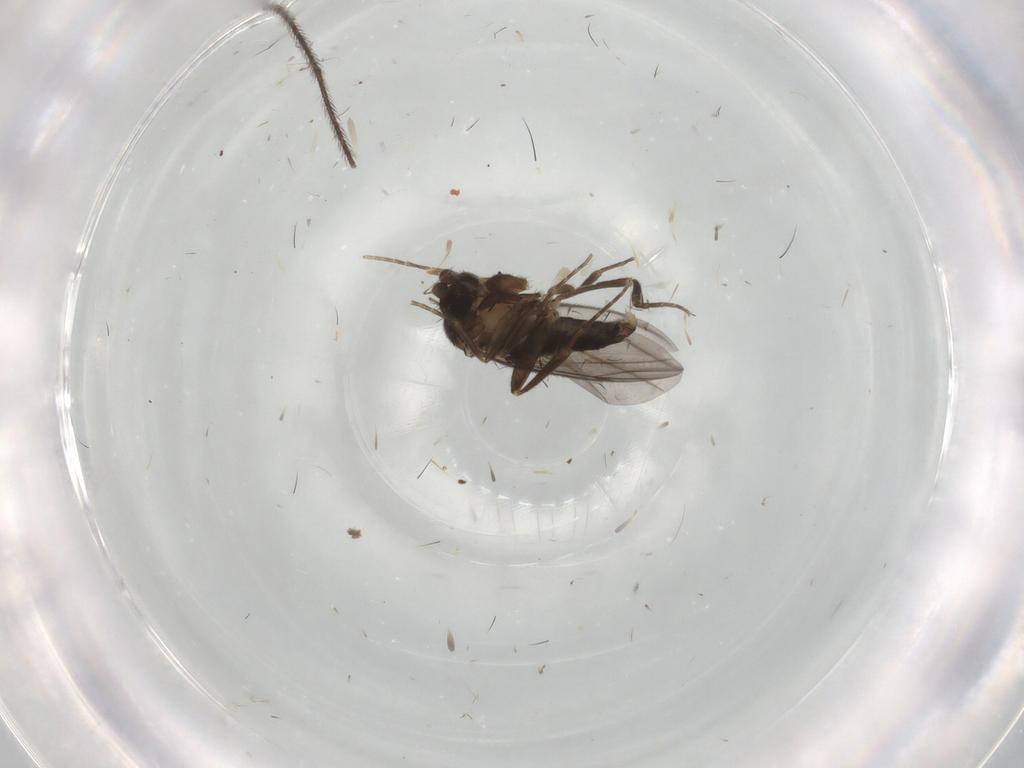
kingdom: Animalia
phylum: Arthropoda
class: Insecta
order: Diptera
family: Tipulidae
